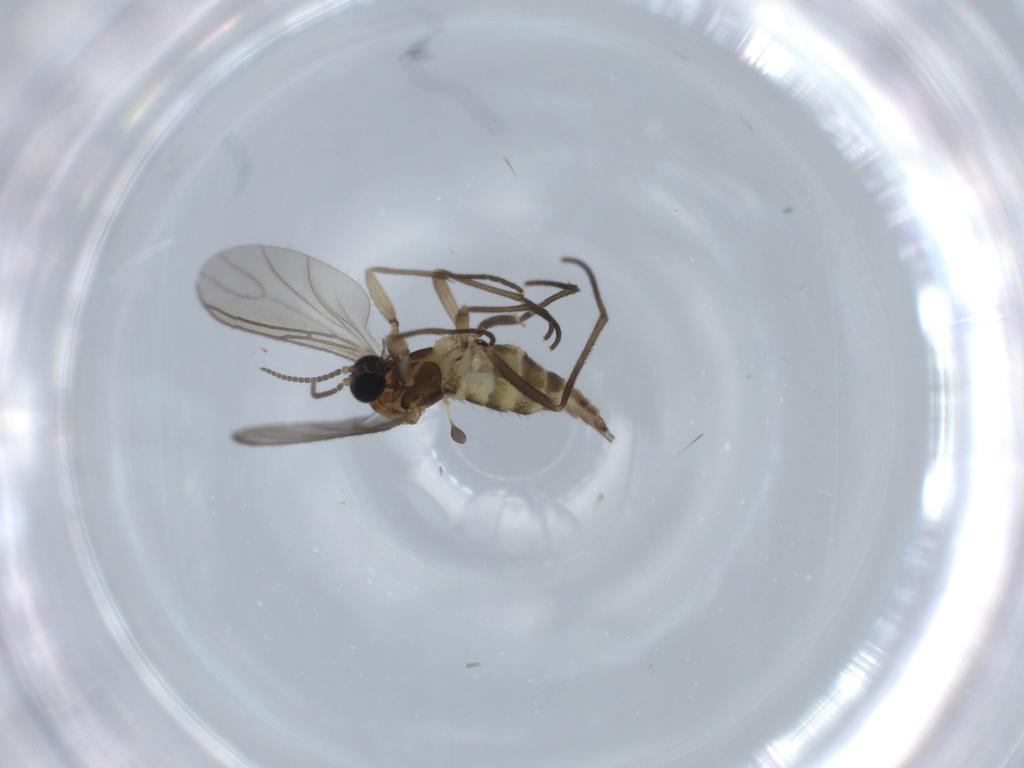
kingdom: Animalia
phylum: Arthropoda
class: Insecta
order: Diptera
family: Sciaridae
